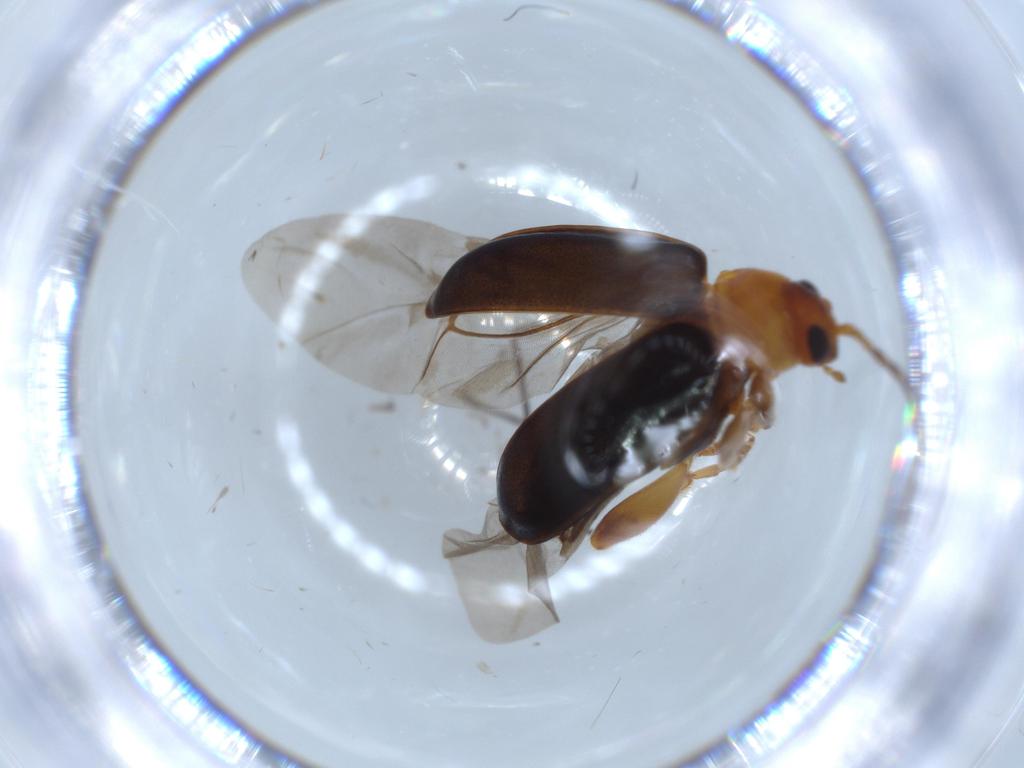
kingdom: Animalia
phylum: Arthropoda
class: Insecta
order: Coleoptera
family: Chrysomelidae
